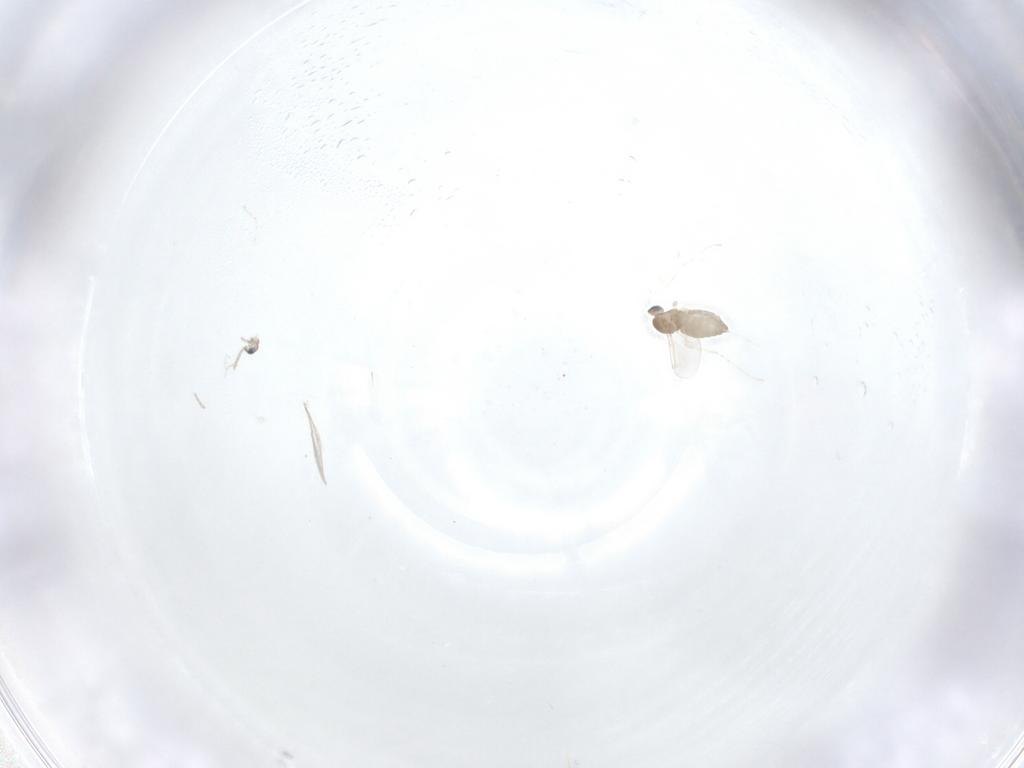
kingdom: Animalia
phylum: Arthropoda
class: Insecta
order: Diptera
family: Cecidomyiidae
